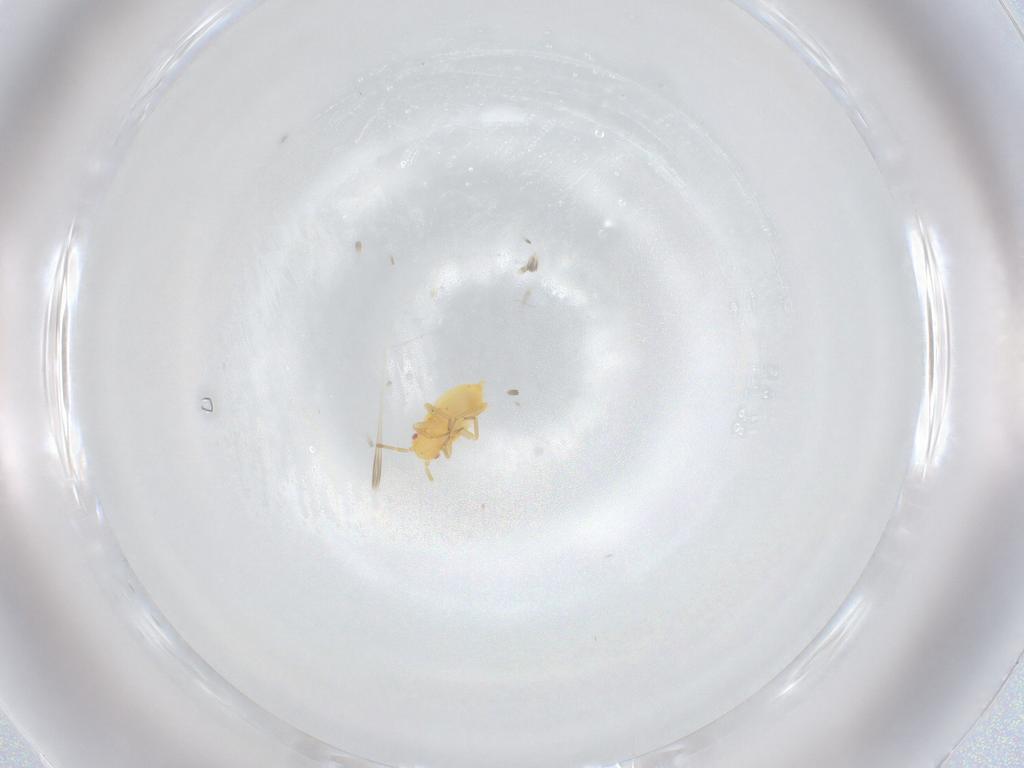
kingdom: Animalia
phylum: Arthropoda
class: Insecta
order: Hemiptera
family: Miridae
